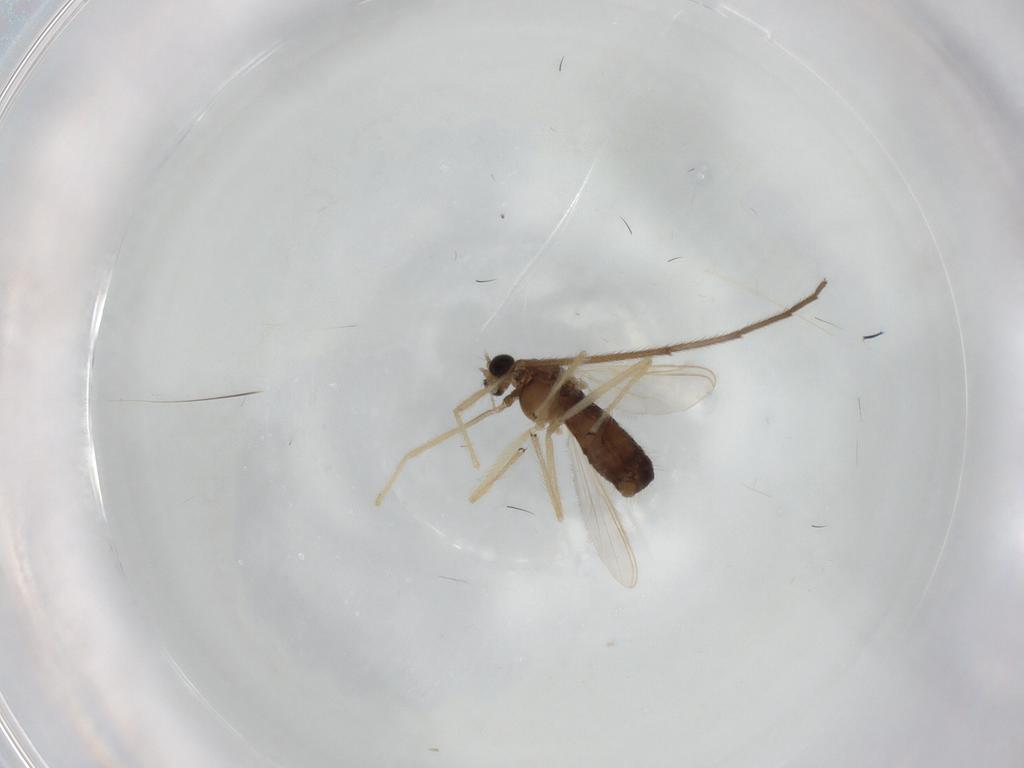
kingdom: Animalia
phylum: Arthropoda
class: Insecta
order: Diptera
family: Chironomidae
